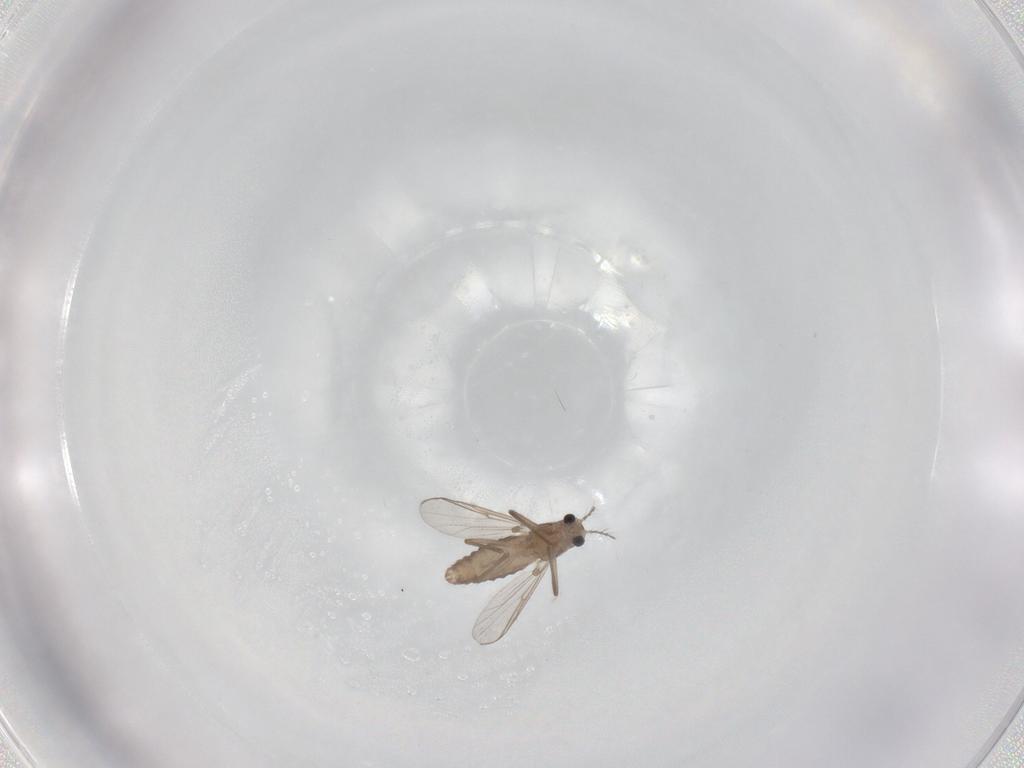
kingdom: Animalia
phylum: Arthropoda
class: Insecta
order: Diptera
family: Chironomidae
